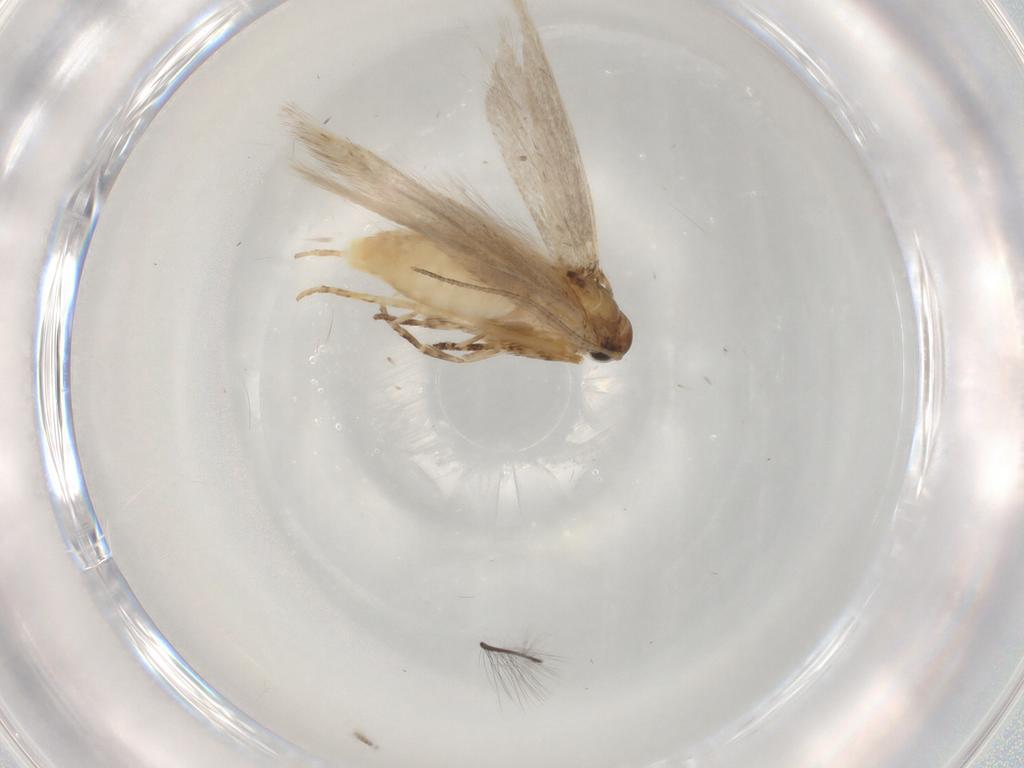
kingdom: Animalia
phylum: Arthropoda
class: Insecta
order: Lepidoptera
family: Gelechiidae
